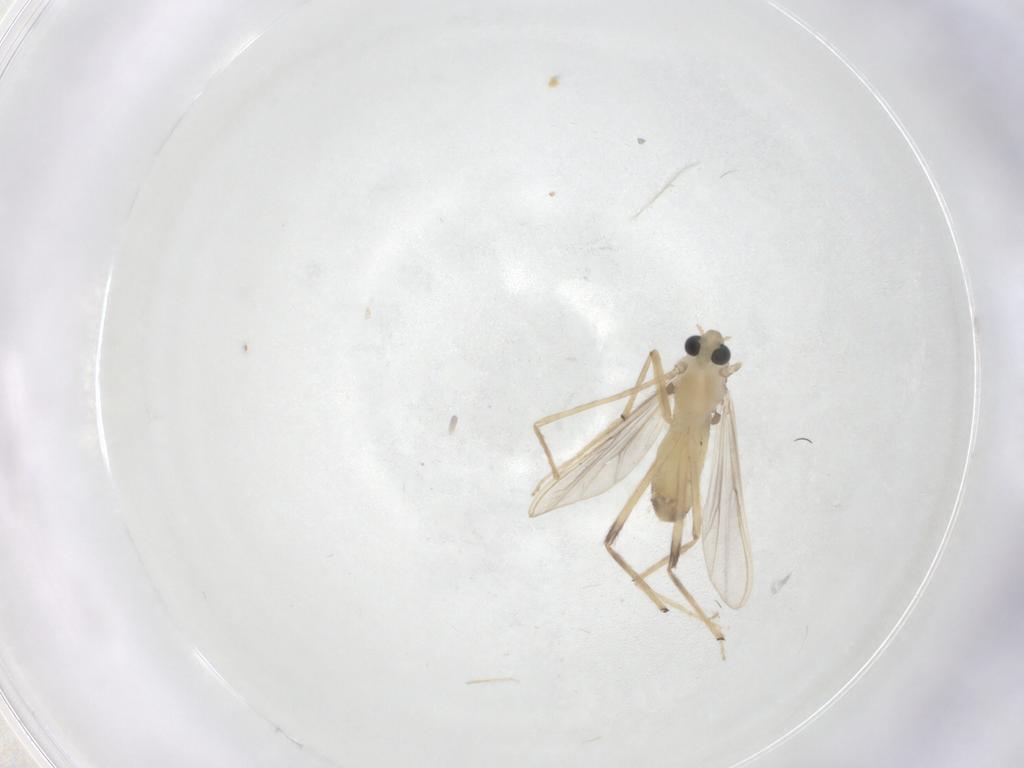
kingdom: Animalia
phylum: Arthropoda
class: Insecta
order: Diptera
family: Chironomidae
